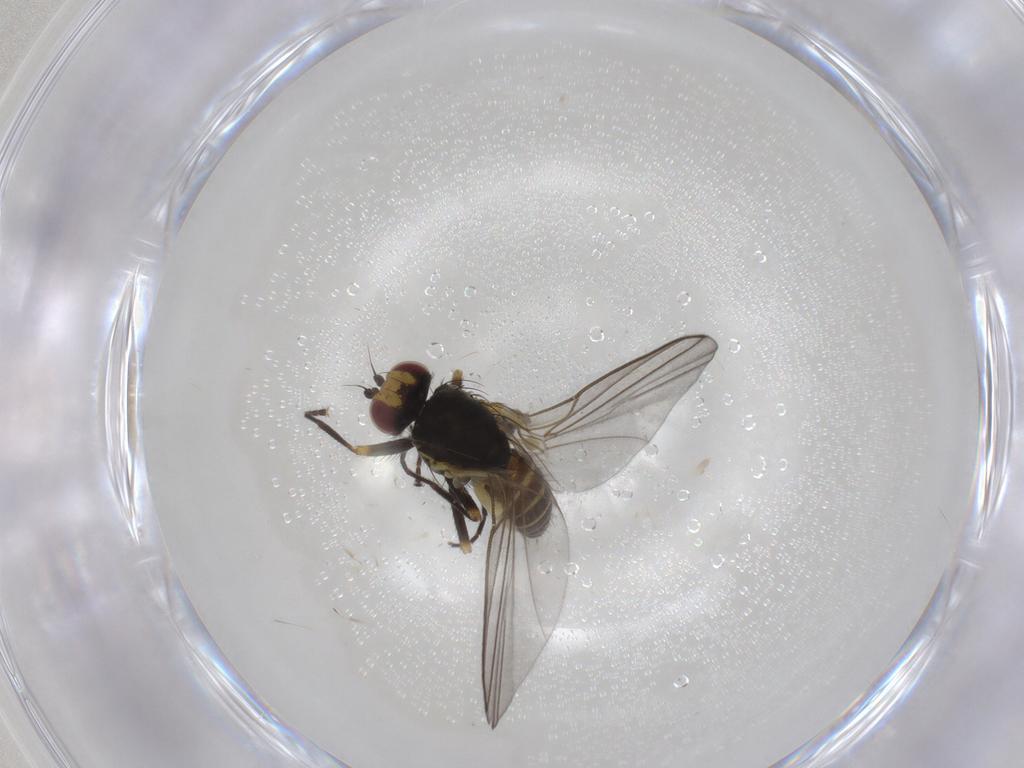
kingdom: Animalia
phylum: Arthropoda
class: Insecta
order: Diptera
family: Agromyzidae
